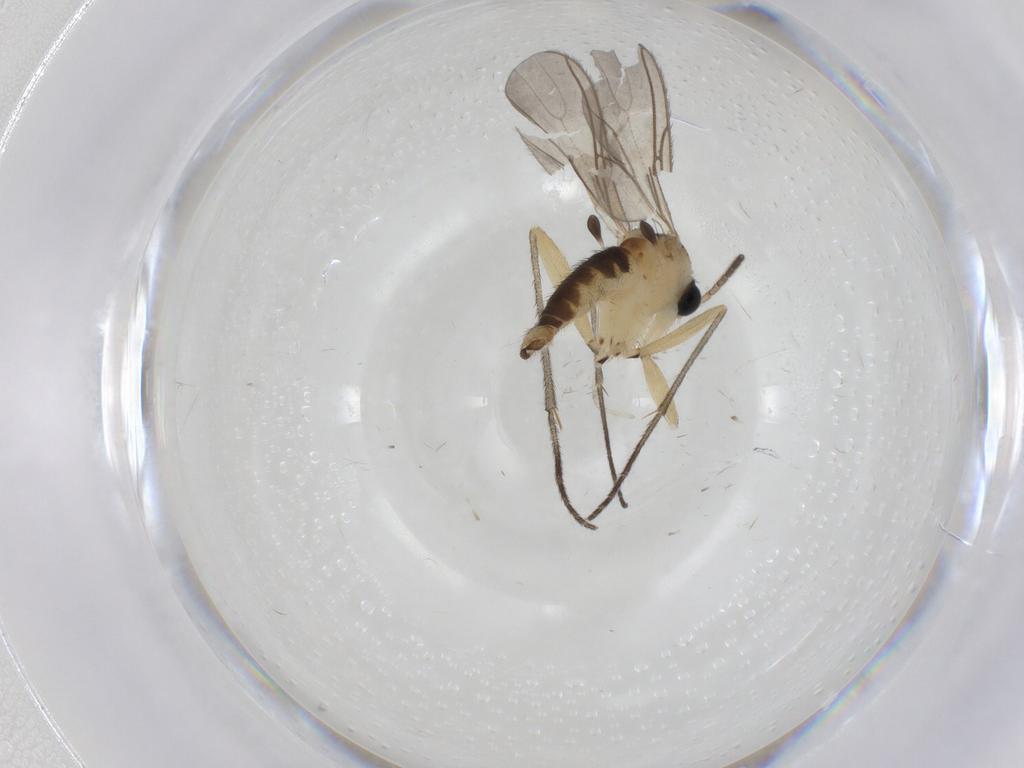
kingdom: Animalia
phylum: Arthropoda
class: Insecta
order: Diptera
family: Sciaridae
